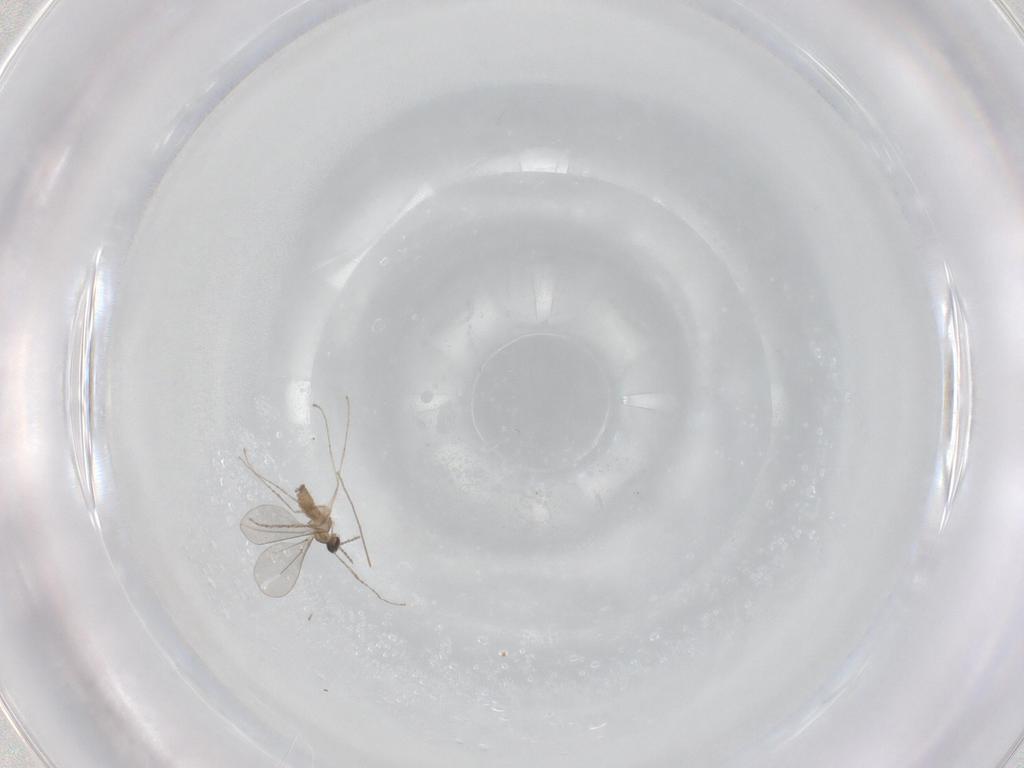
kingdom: Animalia
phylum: Arthropoda
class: Insecta
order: Diptera
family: Cecidomyiidae
